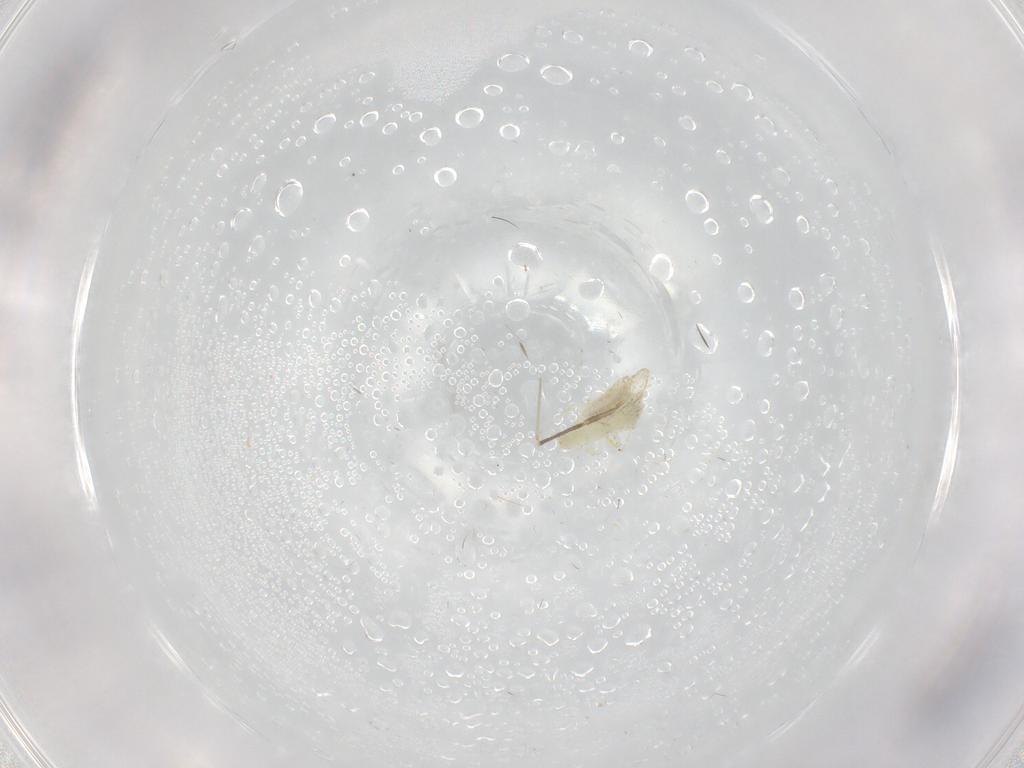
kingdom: Animalia
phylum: Arthropoda
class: Insecta
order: Hemiptera
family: Aleyrodidae
